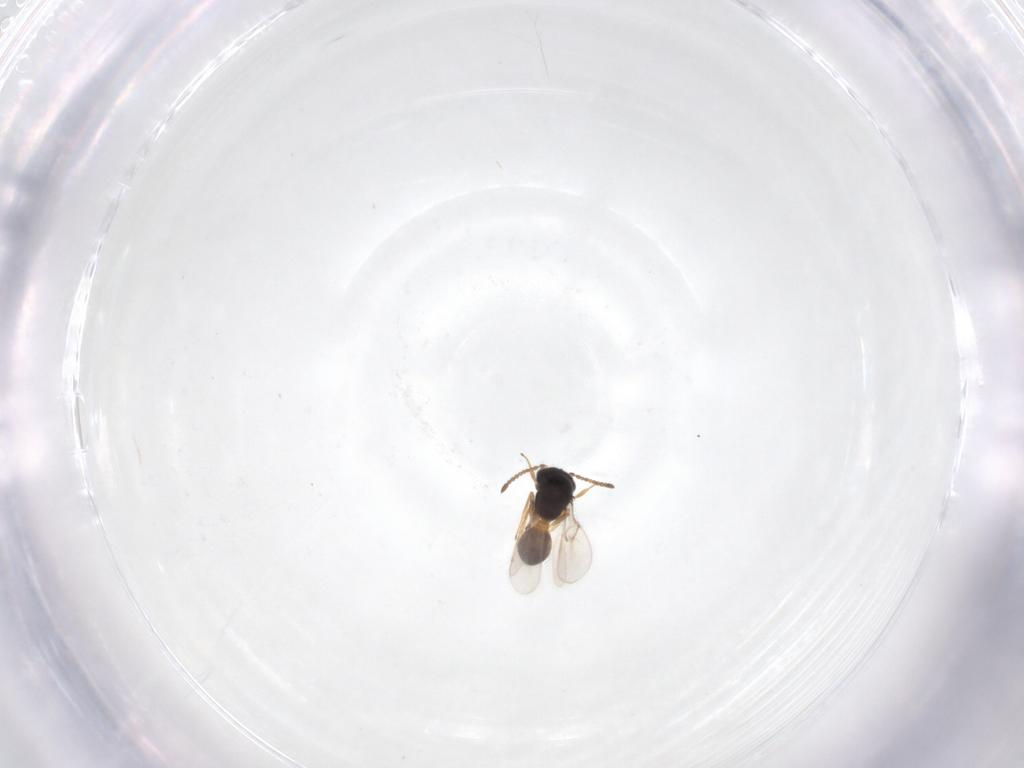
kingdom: Animalia
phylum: Arthropoda
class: Insecta
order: Hymenoptera
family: Scelionidae
